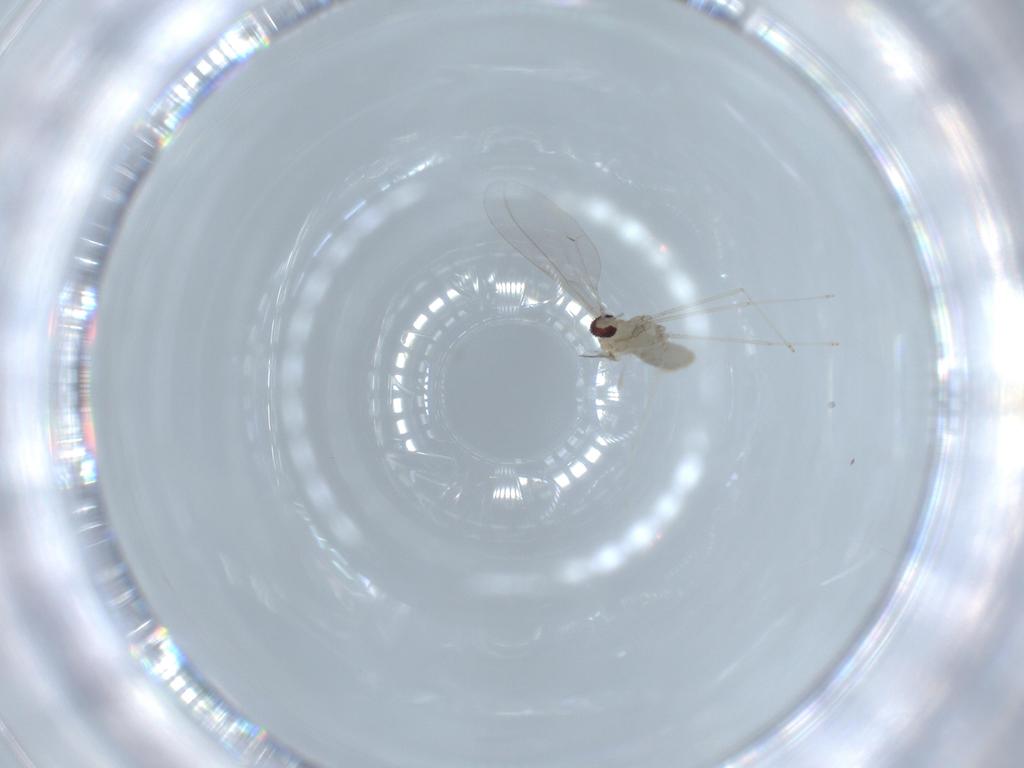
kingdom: Animalia
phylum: Arthropoda
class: Insecta
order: Diptera
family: Cecidomyiidae
